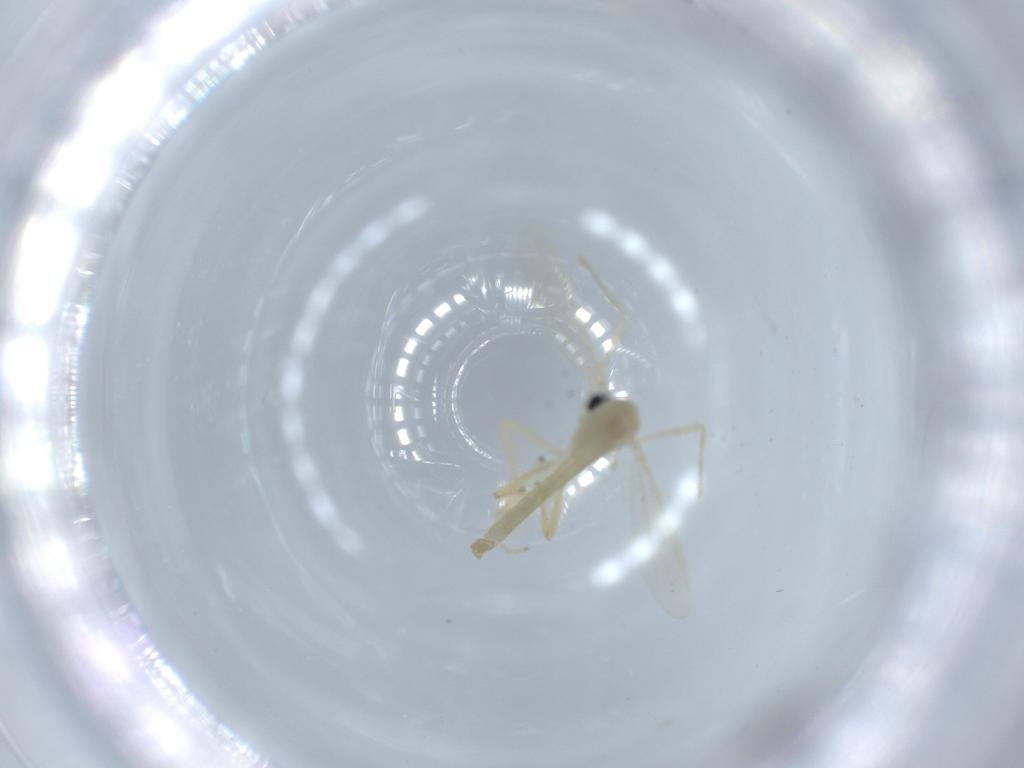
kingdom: Animalia
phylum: Arthropoda
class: Insecta
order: Diptera
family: Chironomidae
